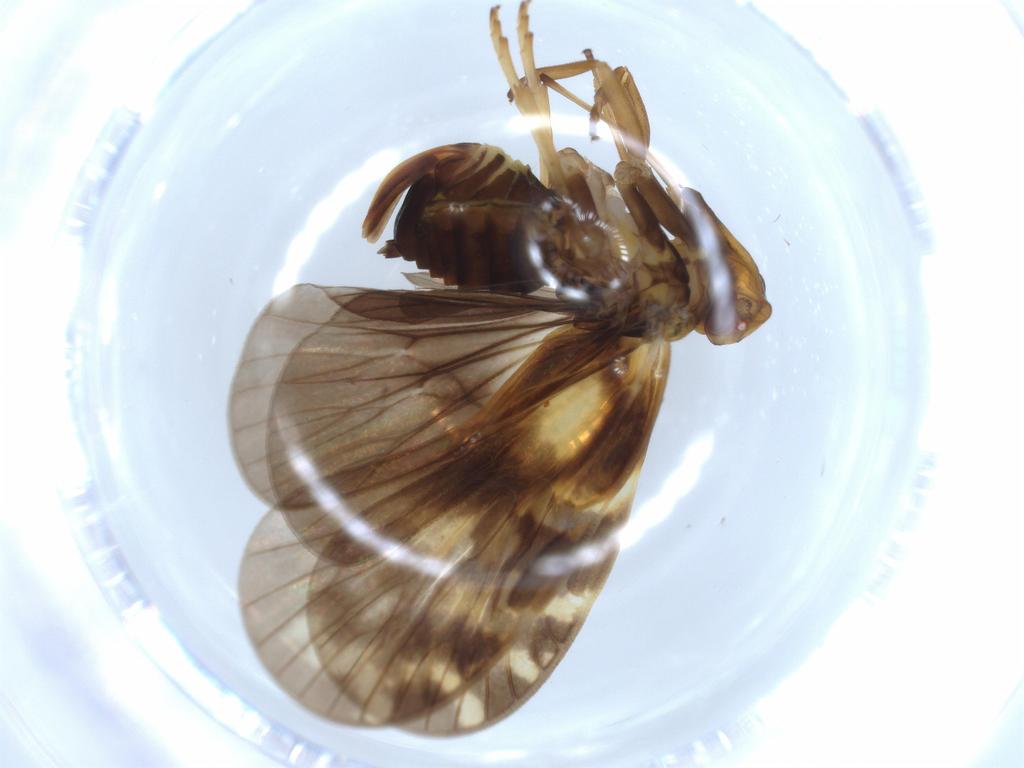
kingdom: Animalia
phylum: Arthropoda
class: Insecta
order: Hemiptera
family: Cixiidae
